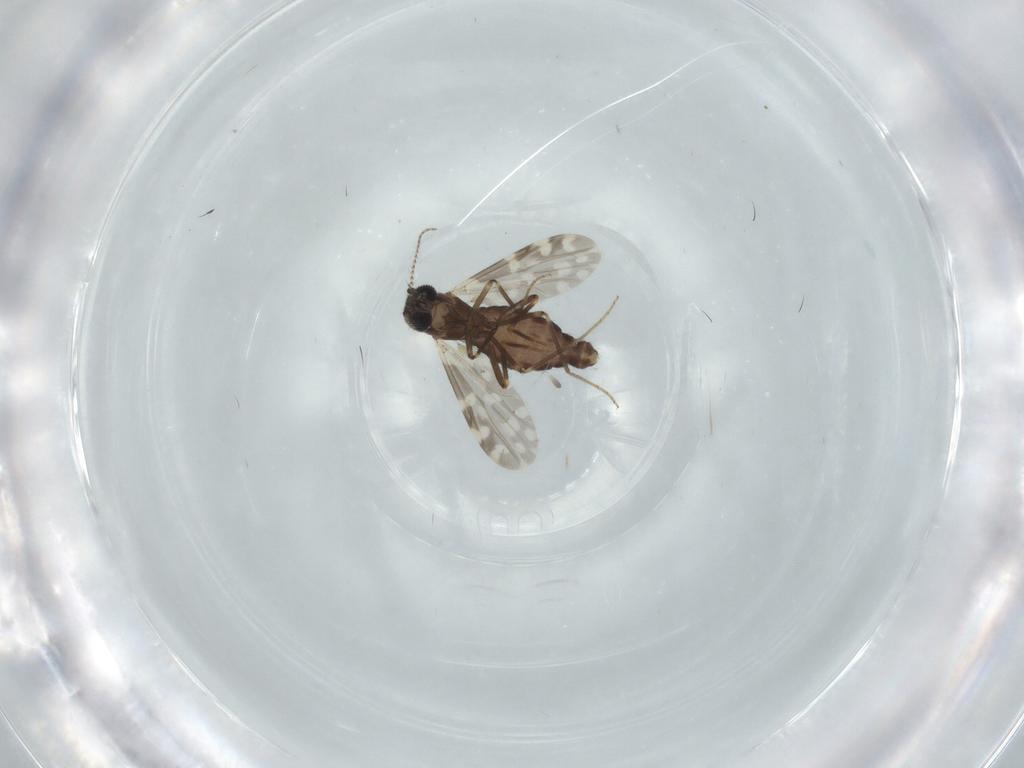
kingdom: Animalia
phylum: Arthropoda
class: Insecta
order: Diptera
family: Ceratopogonidae
